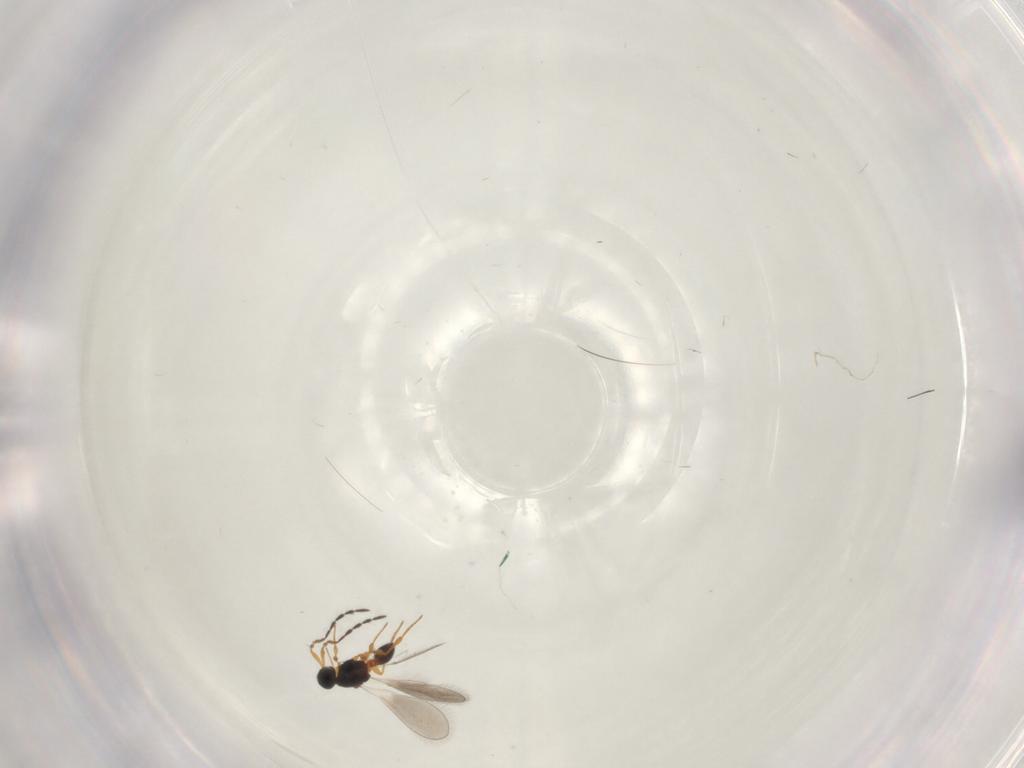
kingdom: Animalia
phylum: Arthropoda
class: Insecta
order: Hymenoptera
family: Platygastridae
